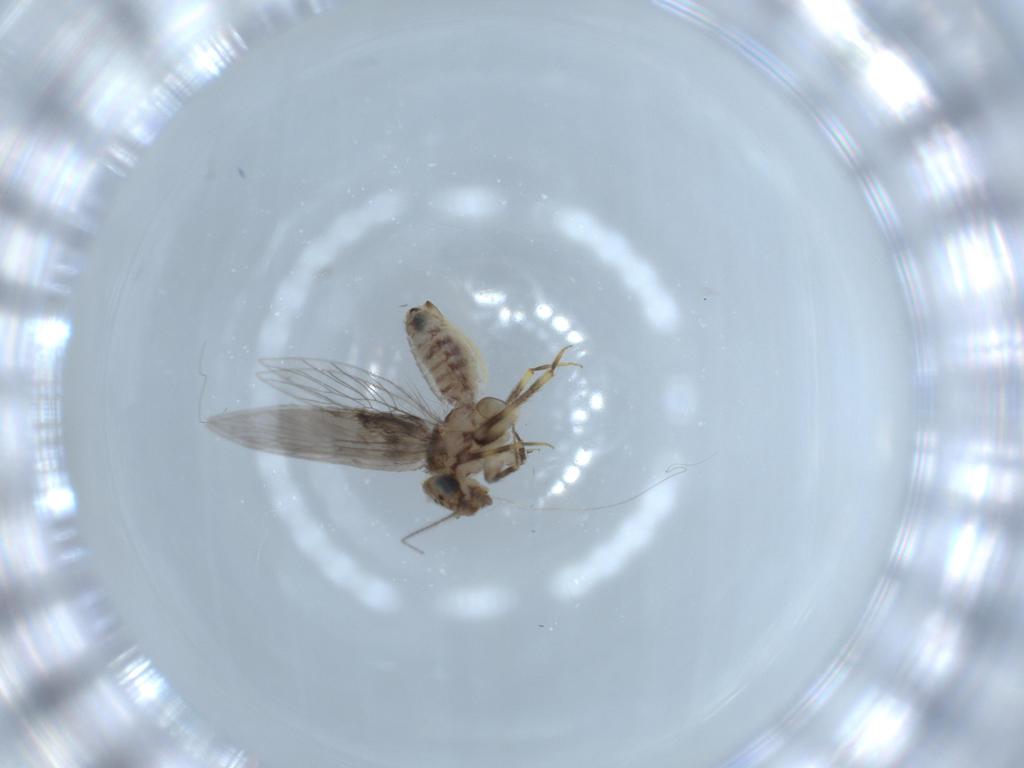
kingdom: Animalia
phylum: Arthropoda
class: Insecta
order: Psocodea
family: Lepidopsocidae
